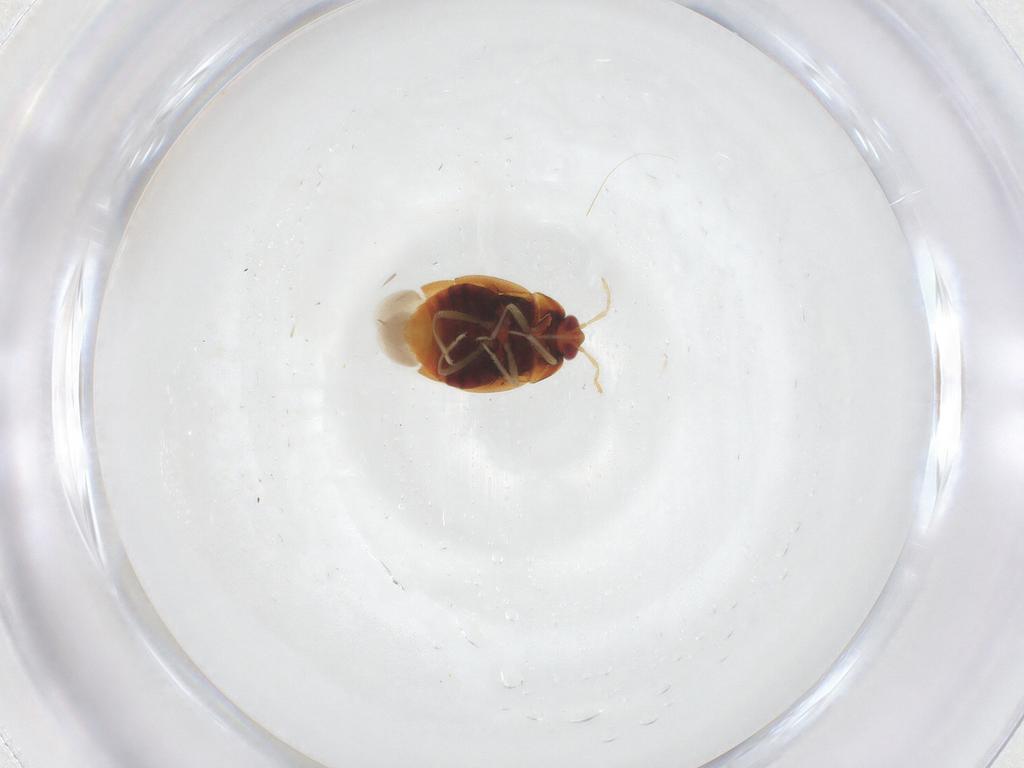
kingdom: Animalia
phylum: Arthropoda
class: Insecta
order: Hemiptera
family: Anthocoridae
